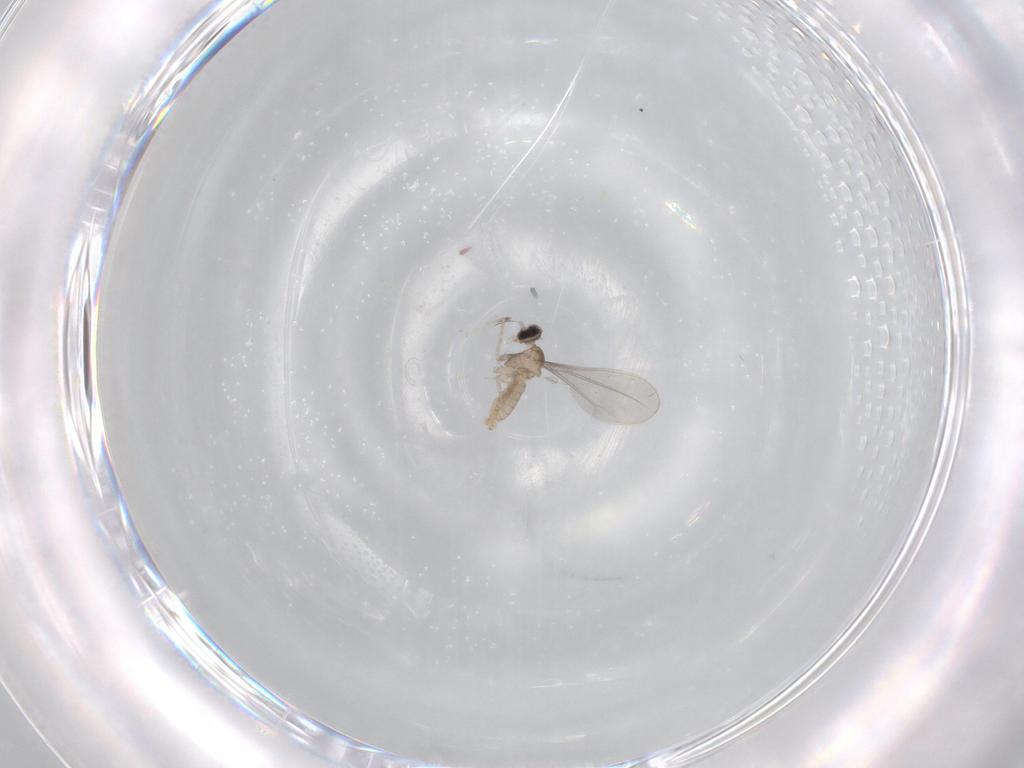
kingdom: Animalia
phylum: Arthropoda
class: Insecta
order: Diptera
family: Cecidomyiidae
